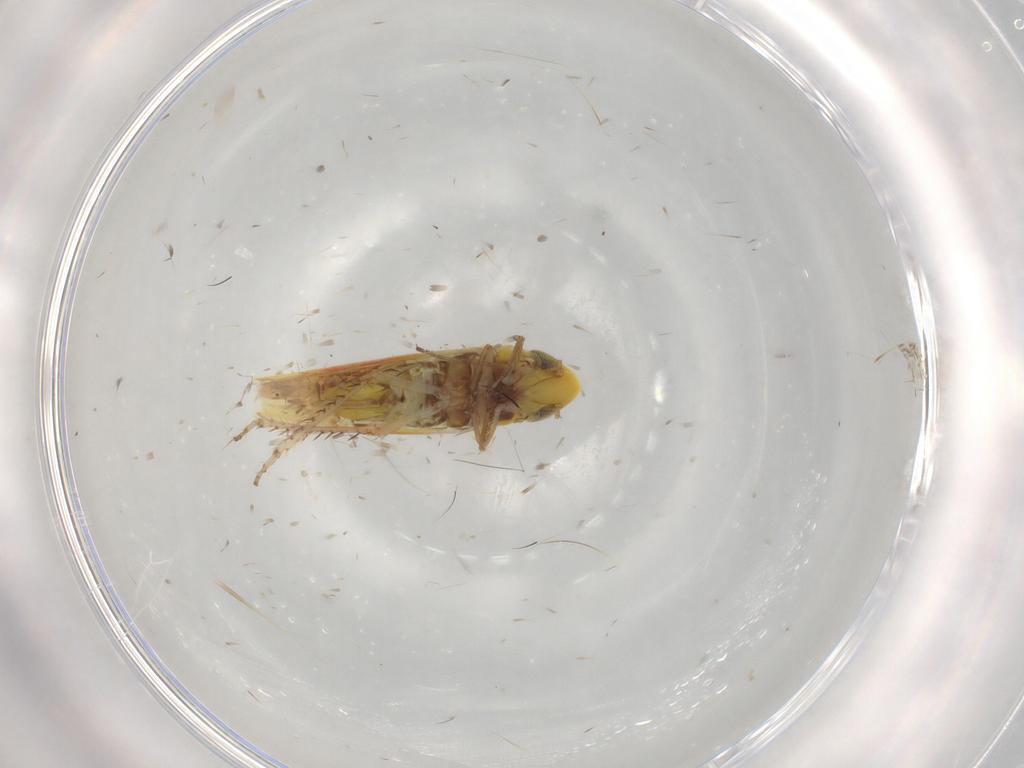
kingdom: Animalia
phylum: Arthropoda
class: Insecta
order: Hemiptera
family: Cicadellidae
